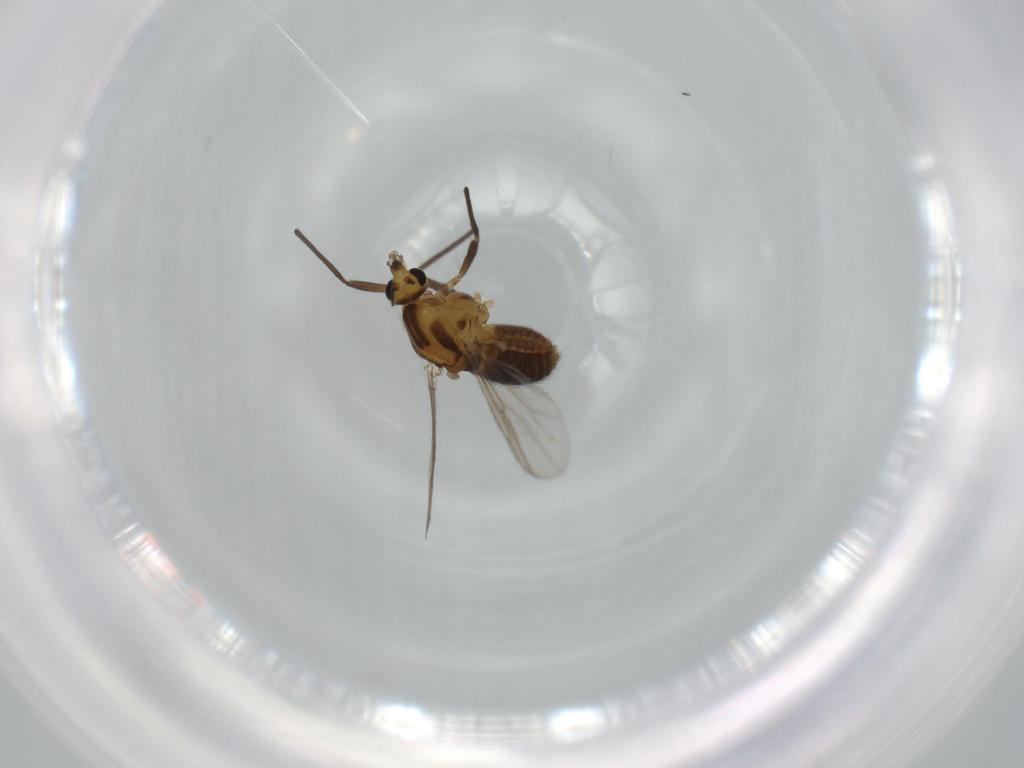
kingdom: Animalia
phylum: Arthropoda
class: Insecta
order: Diptera
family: Chironomidae
